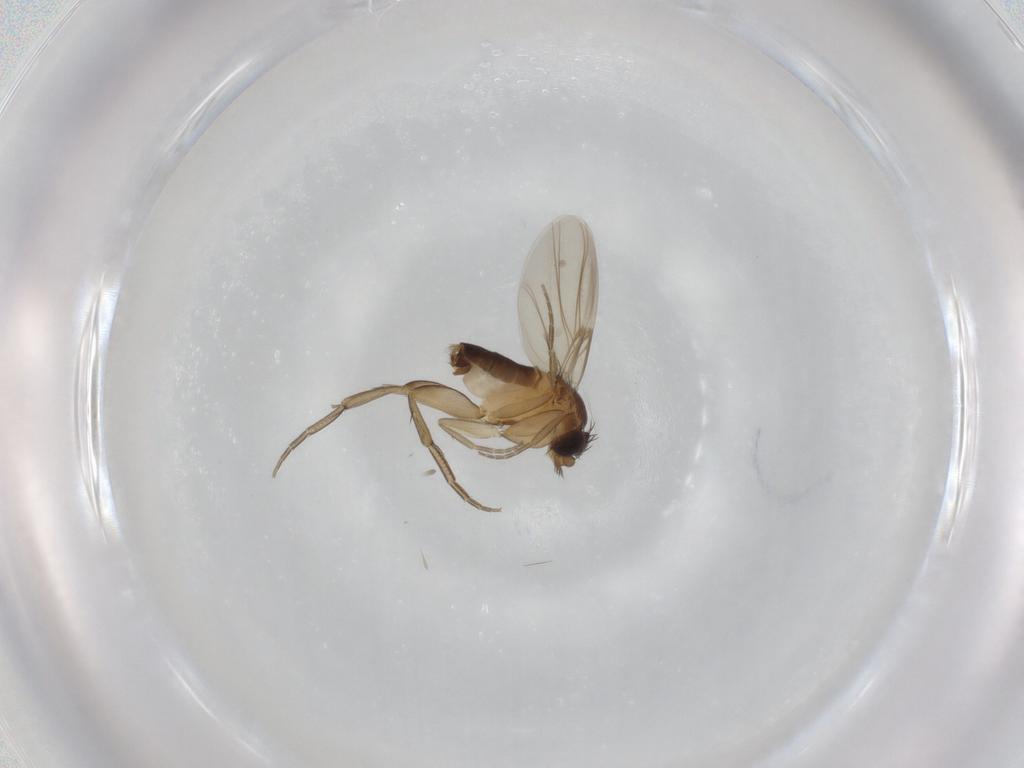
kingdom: Animalia
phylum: Arthropoda
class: Insecta
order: Diptera
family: Phoridae
